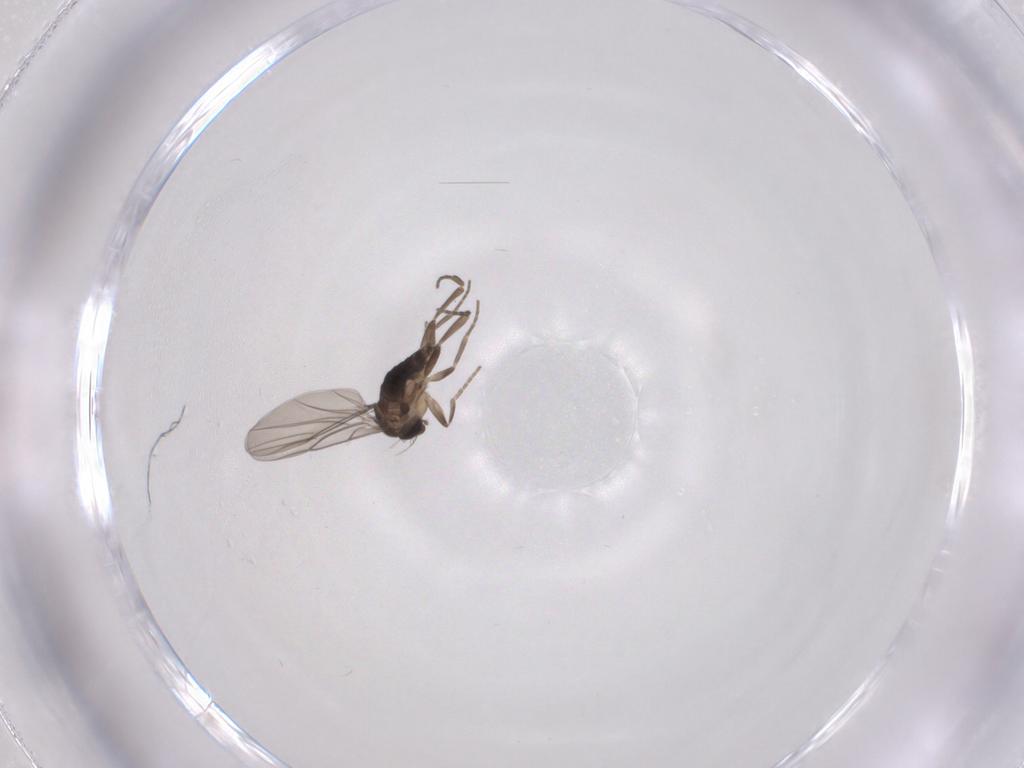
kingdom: Animalia
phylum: Arthropoda
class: Insecta
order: Diptera
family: Phoridae
